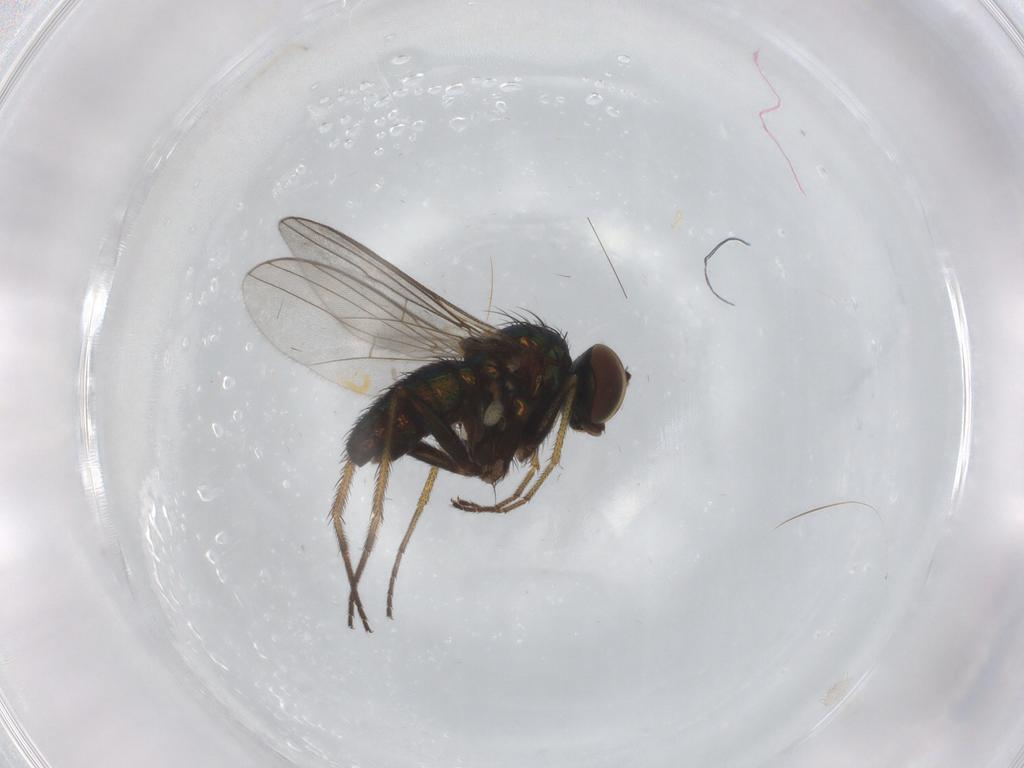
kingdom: Animalia
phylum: Arthropoda
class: Insecta
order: Diptera
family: Dolichopodidae
